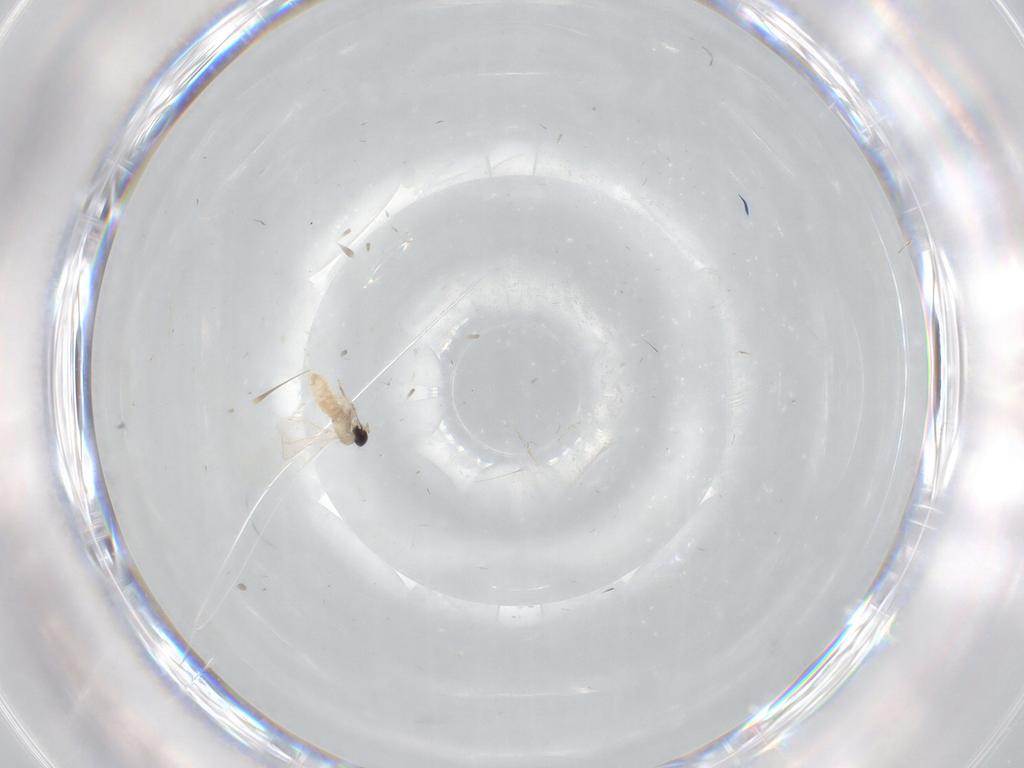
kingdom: Animalia
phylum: Arthropoda
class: Insecta
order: Diptera
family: Cecidomyiidae
